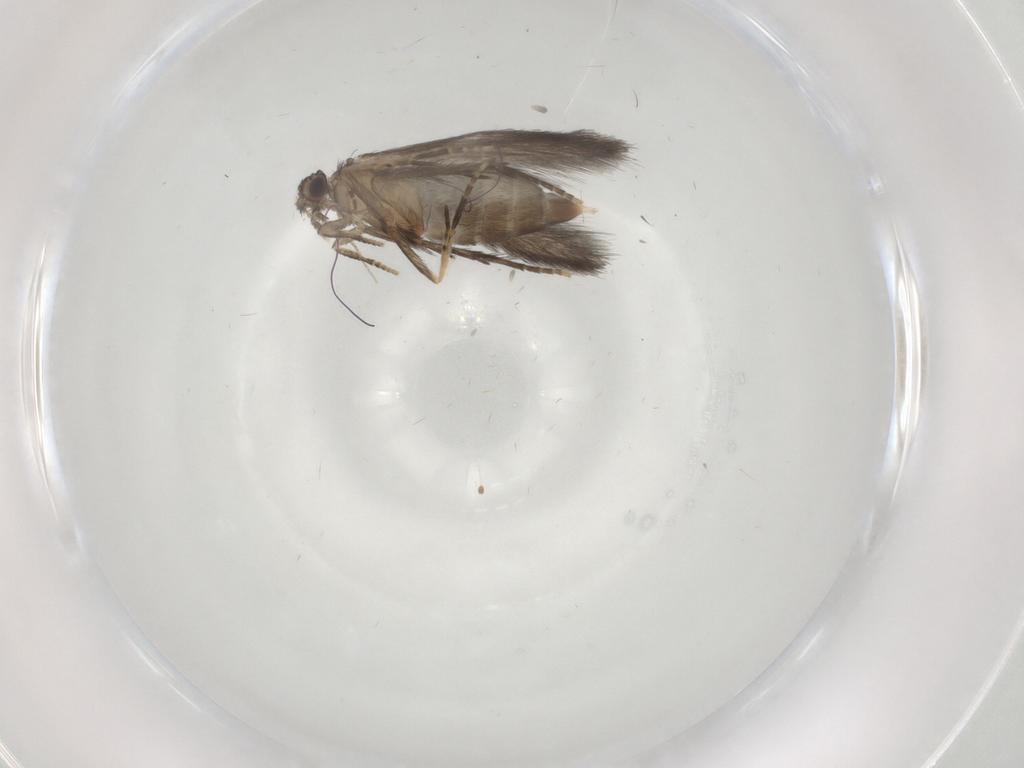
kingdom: Animalia
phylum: Arthropoda
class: Insecta
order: Trichoptera
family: Hydroptilidae
